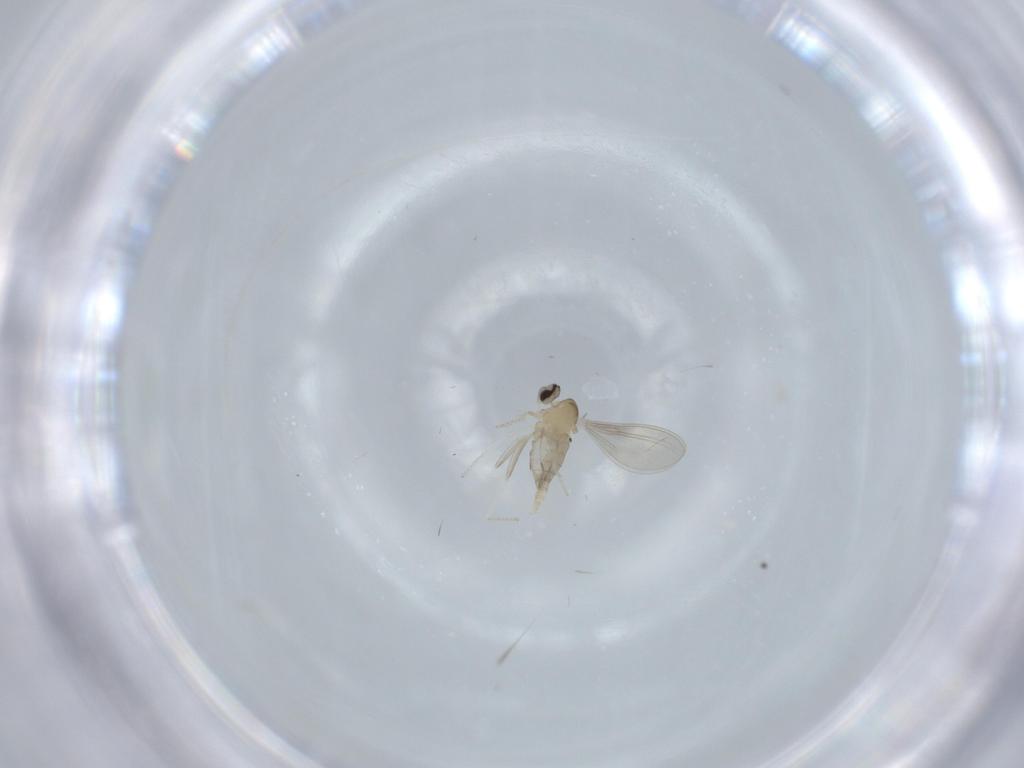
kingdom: Animalia
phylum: Arthropoda
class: Insecta
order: Diptera
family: Cecidomyiidae
